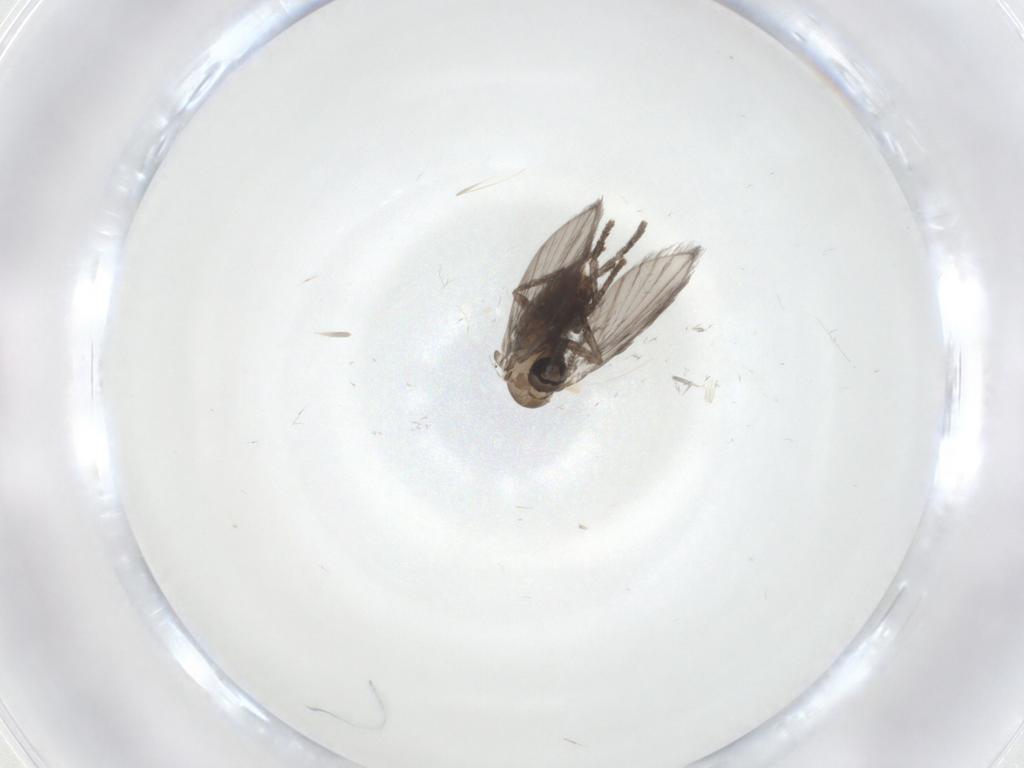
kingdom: Animalia
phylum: Arthropoda
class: Insecta
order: Diptera
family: Psychodidae
